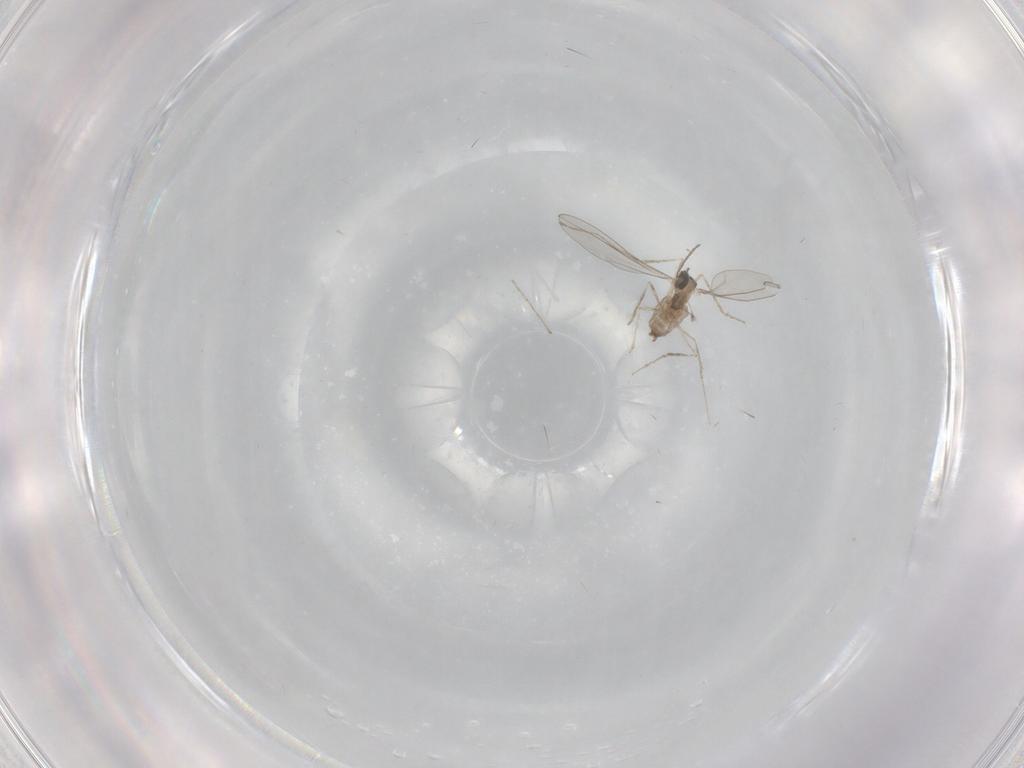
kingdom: Animalia
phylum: Arthropoda
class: Insecta
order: Diptera
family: Cecidomyiidae
